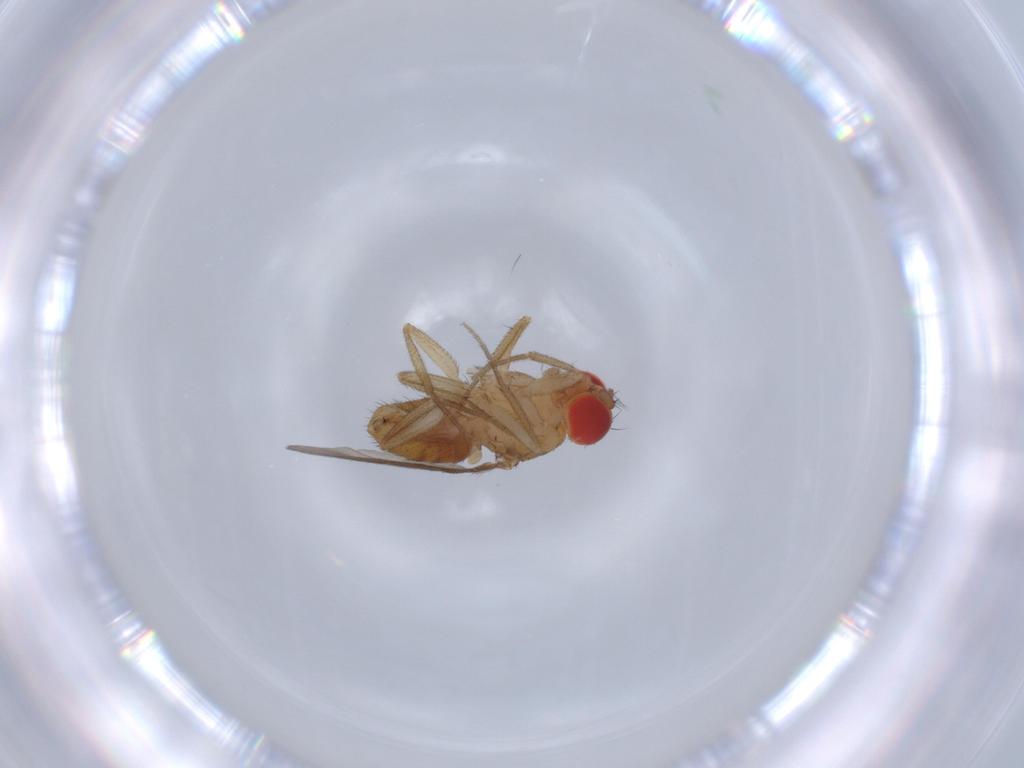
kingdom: Animalia
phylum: Arthropoda
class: Insecta
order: Diptera
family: Drosophilidae
